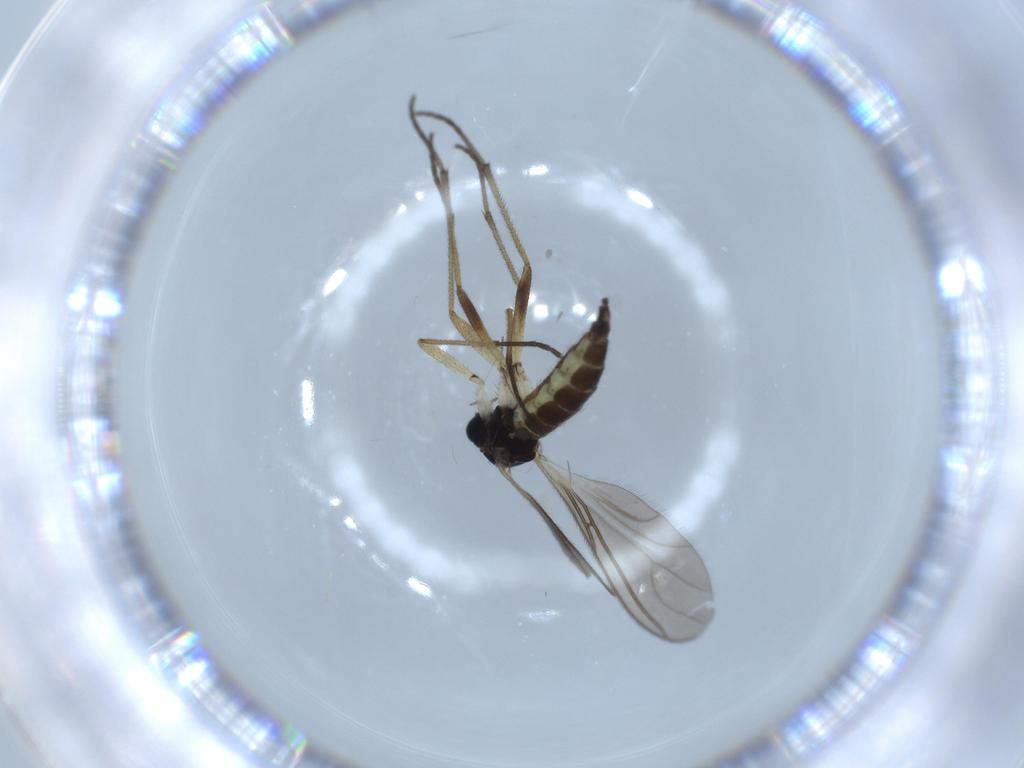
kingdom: Animalia
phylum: Arthropoda
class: Insecta
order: Diptera
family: Sciaridae
